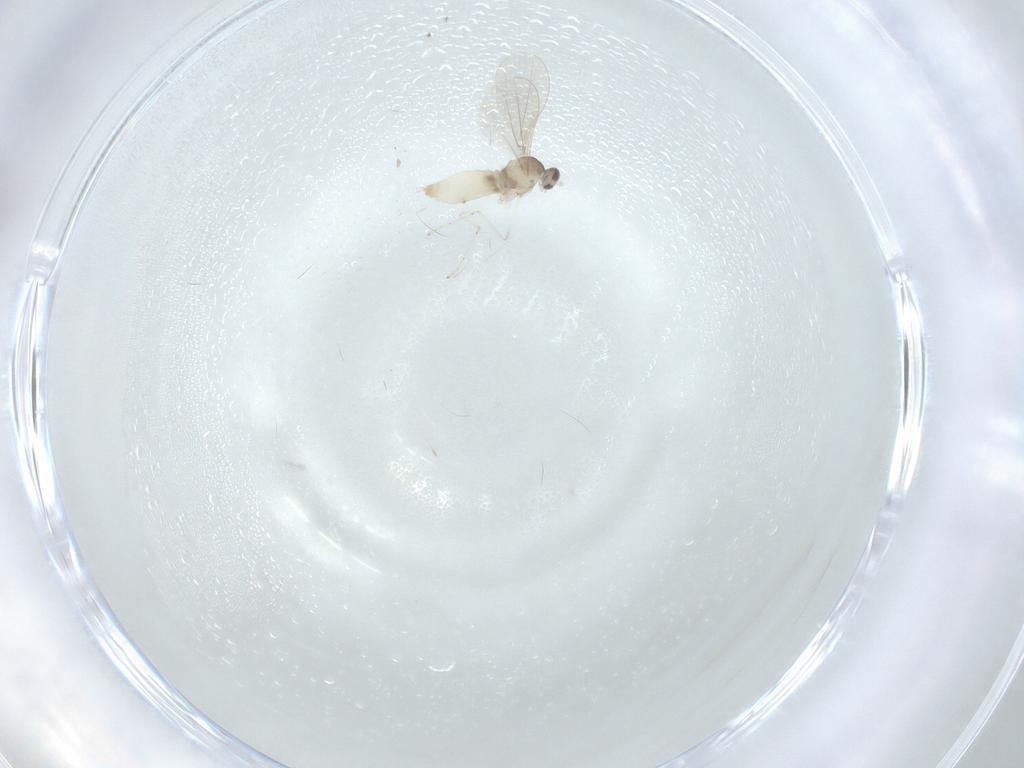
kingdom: Animalia
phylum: Arthropoda
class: Insecta
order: Diptera
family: Cecidomyiidae
